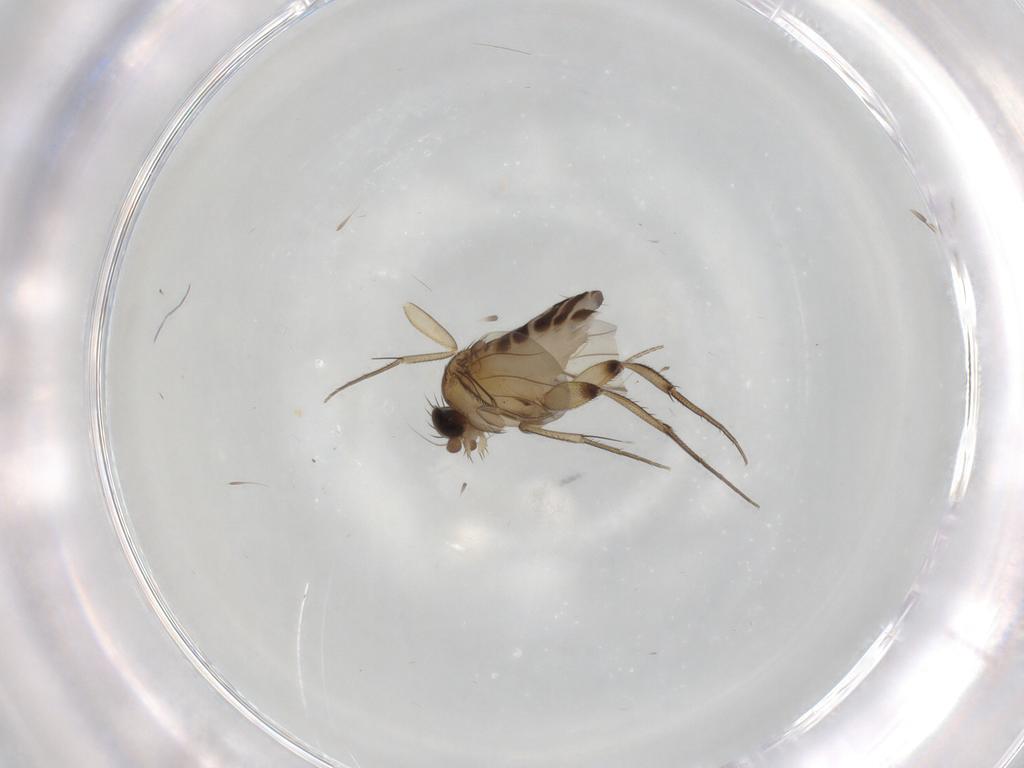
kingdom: Animalia
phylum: Arthropoda
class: Insecta
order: Diptera
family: Phoridae
